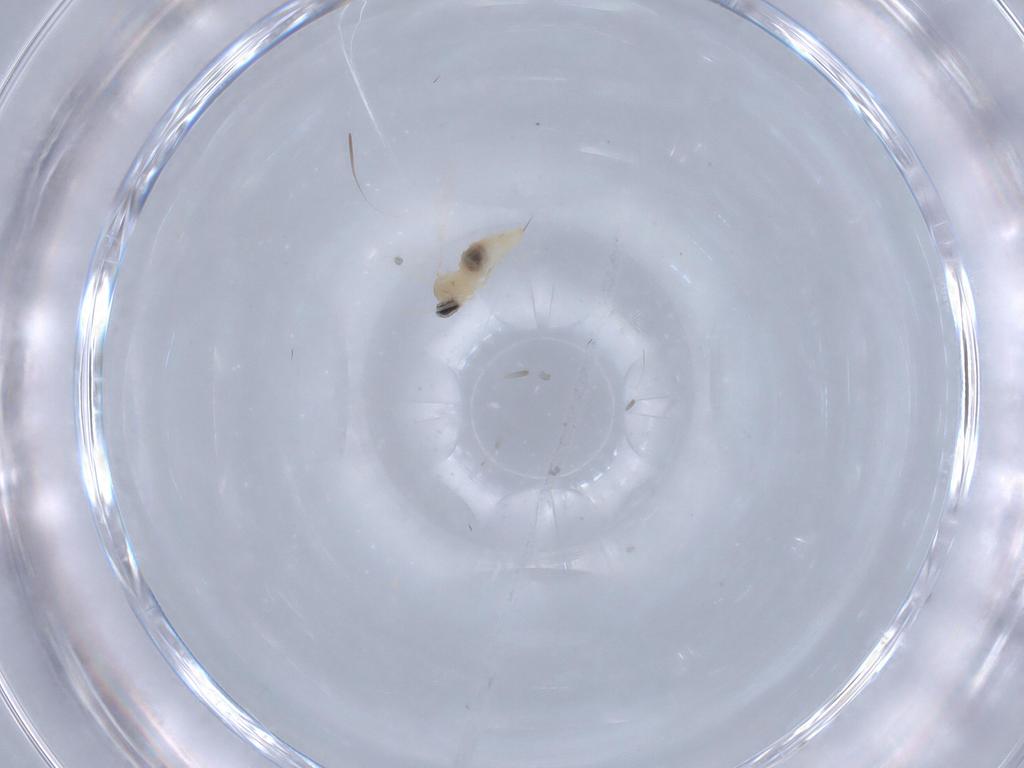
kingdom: Animalia
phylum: Arthropoda
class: Insecta
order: Diptera
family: Cecidomyiidae
